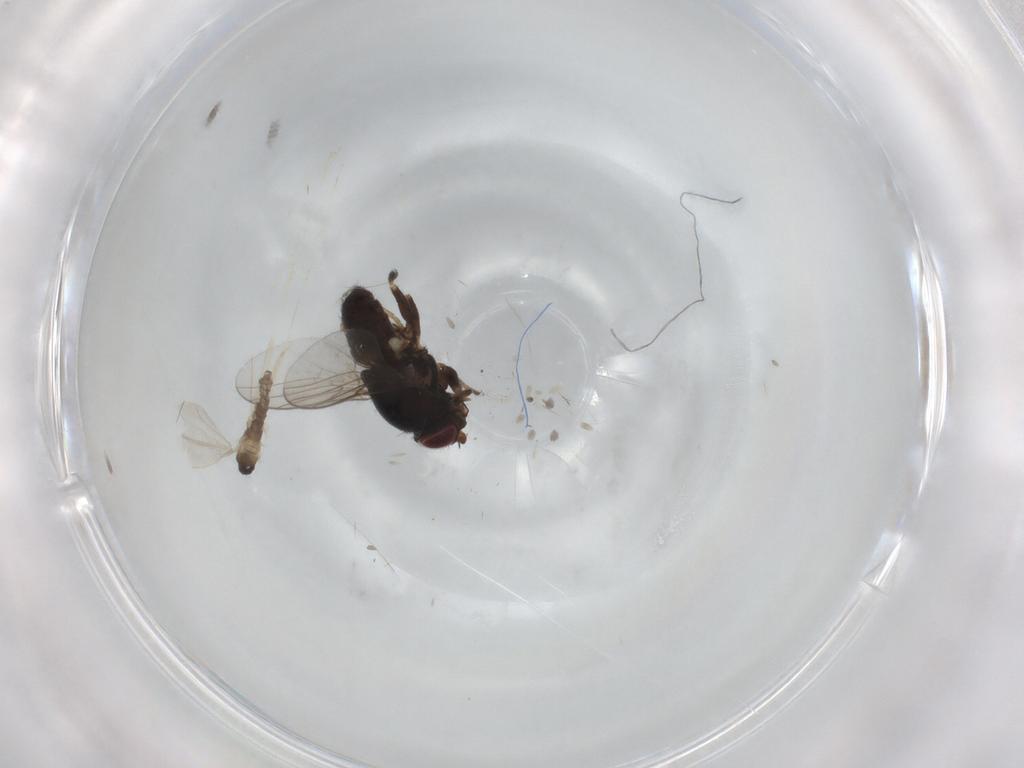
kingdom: Animalia
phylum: Arthropoda
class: Insecta
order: Diptera
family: Chloropidae
